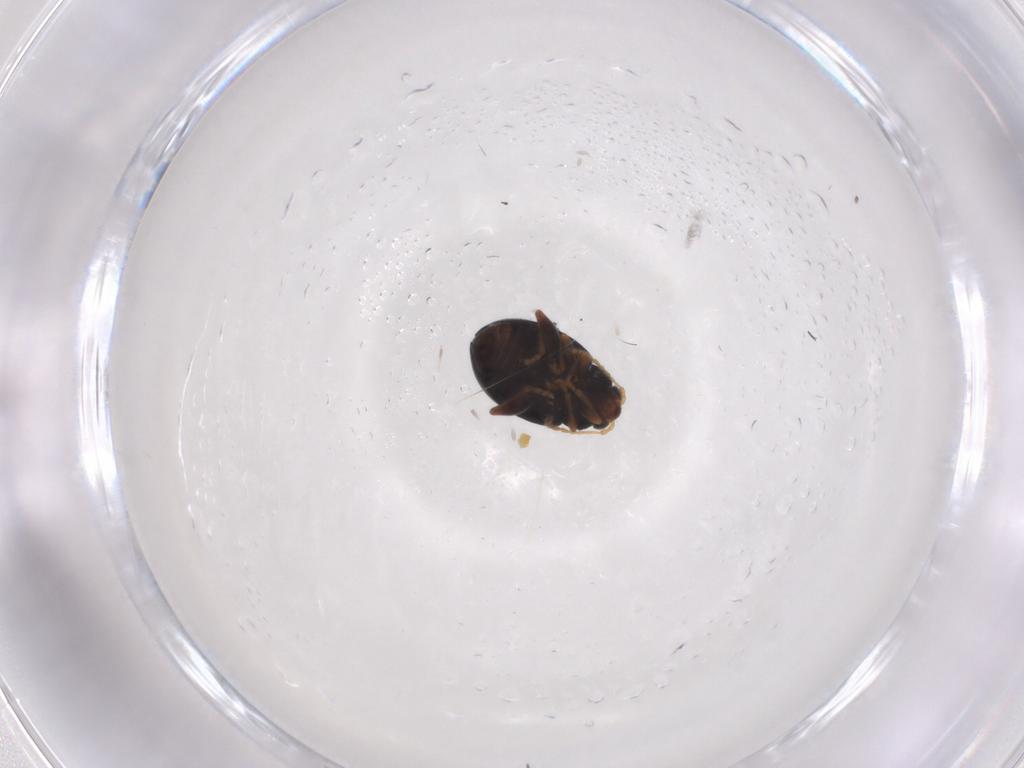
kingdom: Animalia
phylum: Arthropoda
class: Insecta
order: Coleoptera
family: Chrysomelidae
